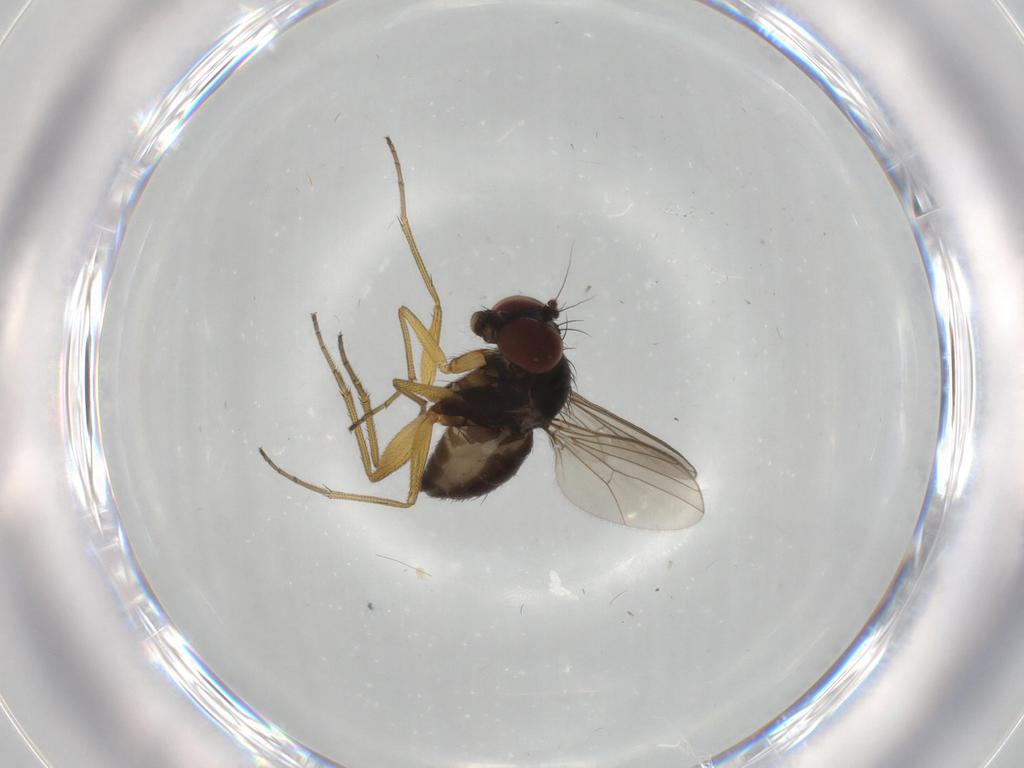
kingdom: Animalia
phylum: Arthropoda
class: Insecta
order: Diptera
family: Dolichopodidae
